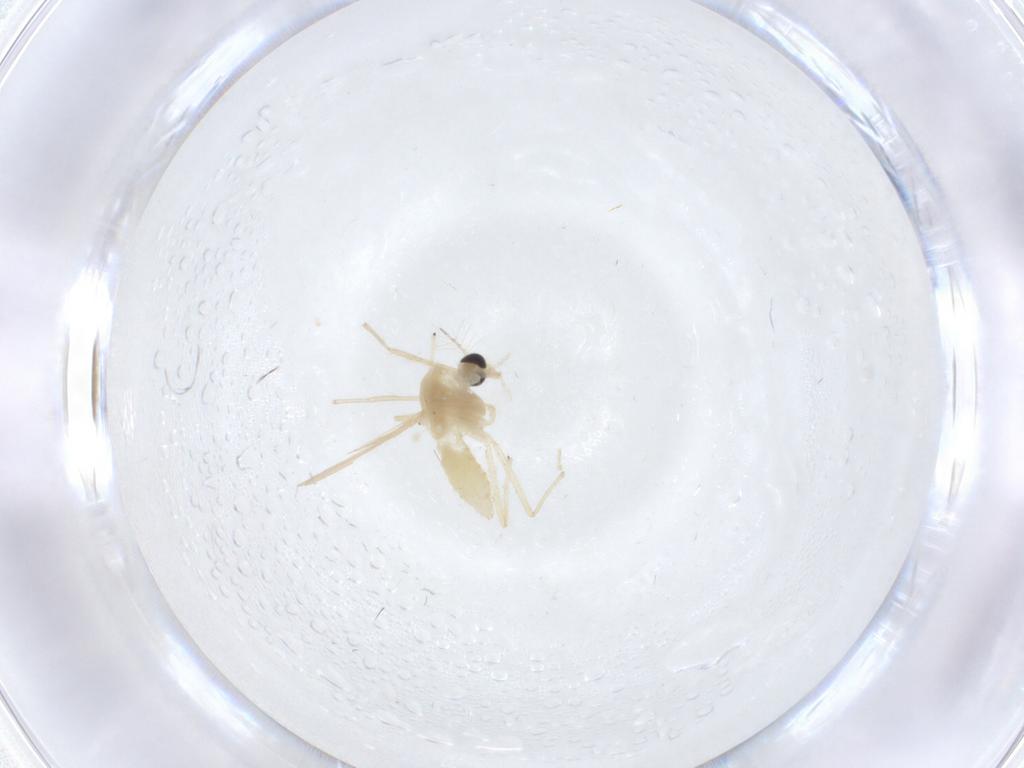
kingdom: Animalia
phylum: Arthropoda
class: Insecta
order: Diptera
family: Chironomidae
